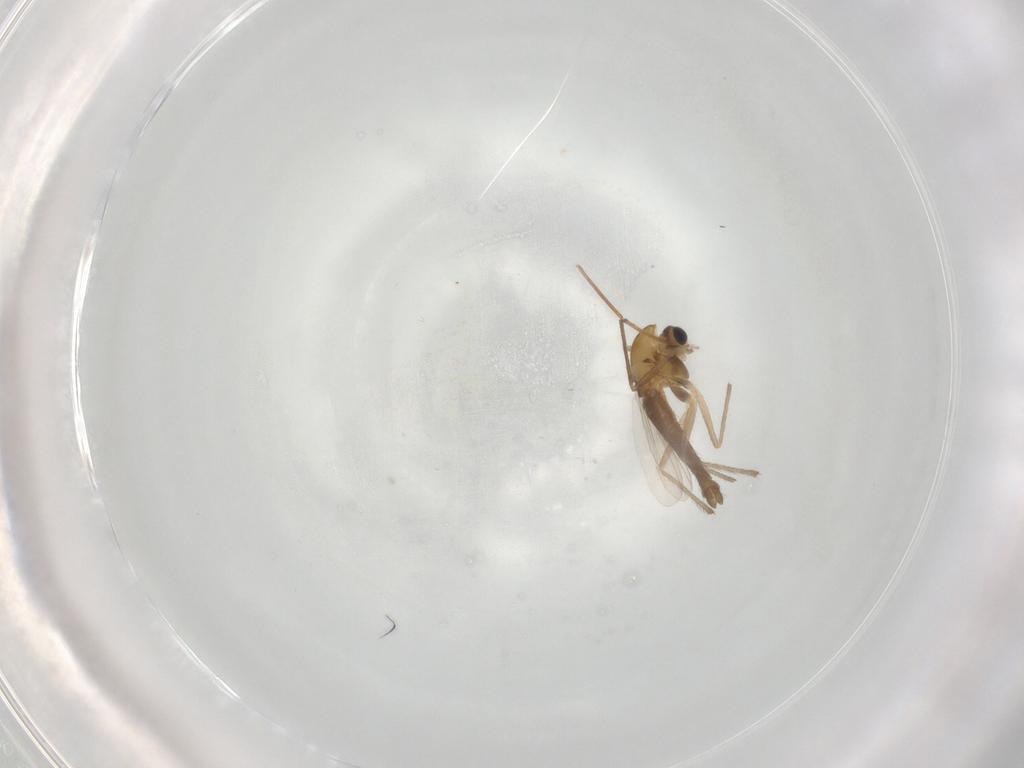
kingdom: Animalia
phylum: Arthropoda
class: Insecta
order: Diptera
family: Chironomidae
